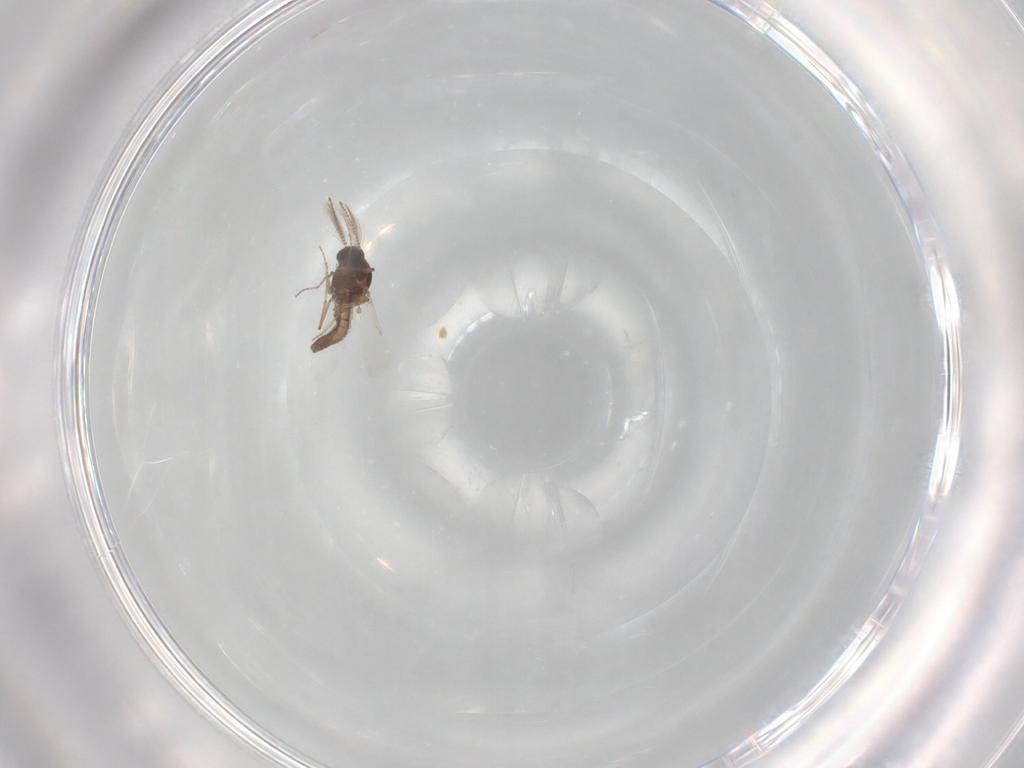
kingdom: Animalia
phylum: Arthropoda
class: Insecta
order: Diptera
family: Ceratopogonidae
